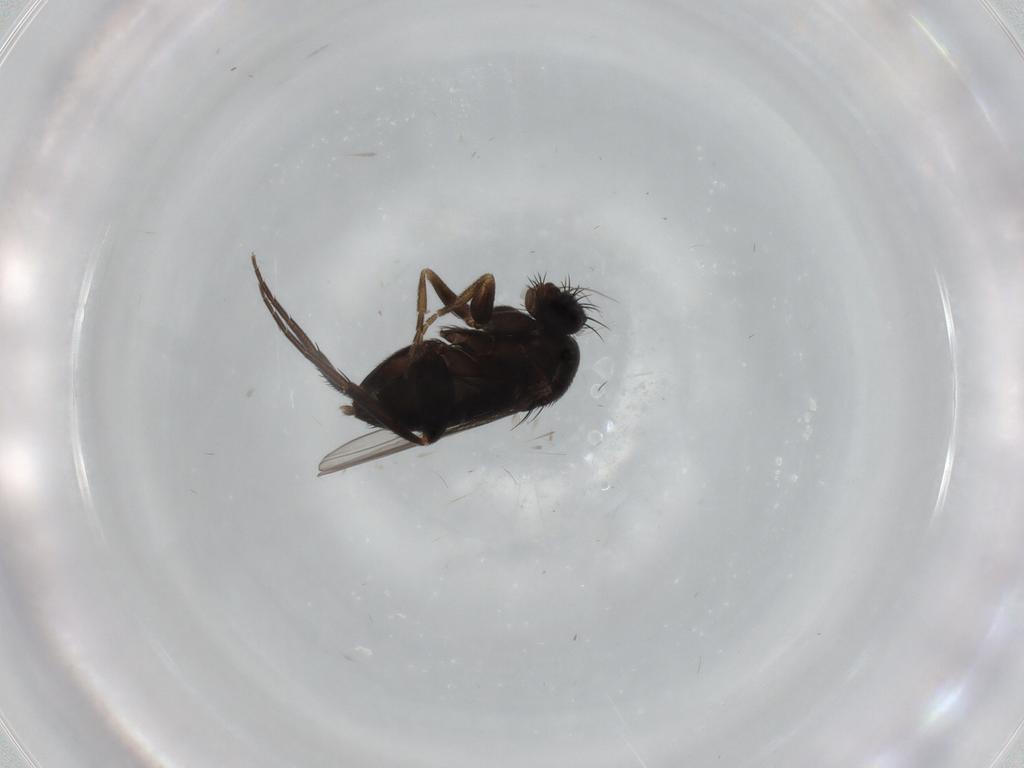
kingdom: Animalia
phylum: Arthropoda
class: Insecta
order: Diptera
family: Phoridae
